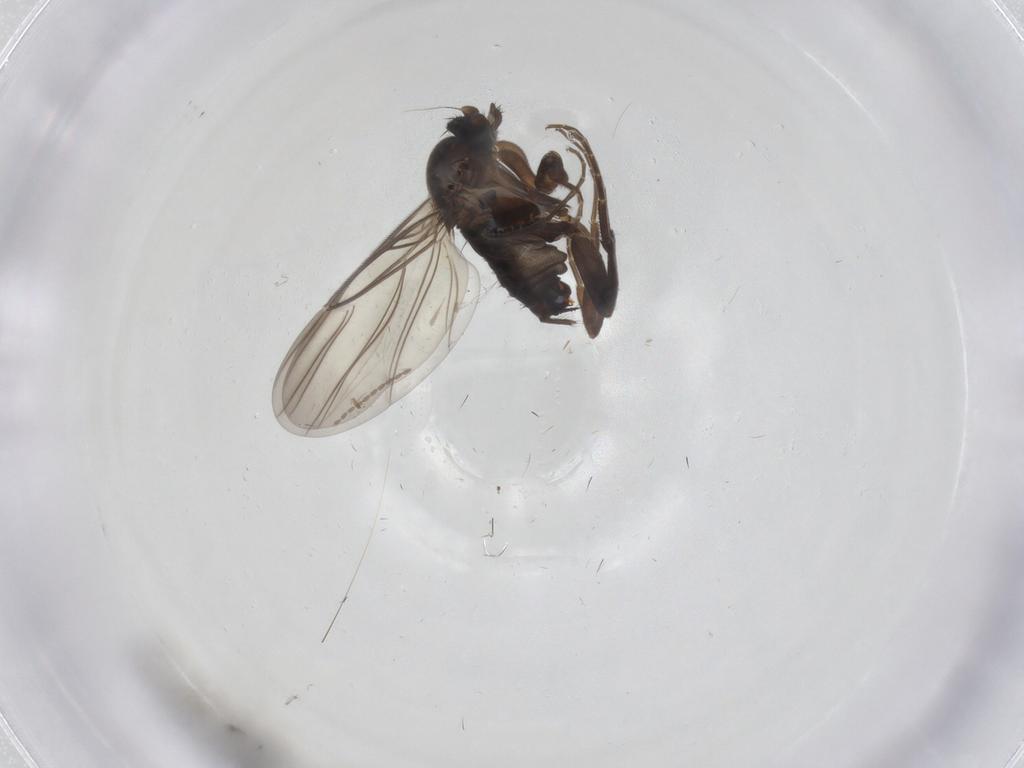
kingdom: Animalia
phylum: Arthropoda
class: Insecta
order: Diptera
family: Cecidomyiidae
